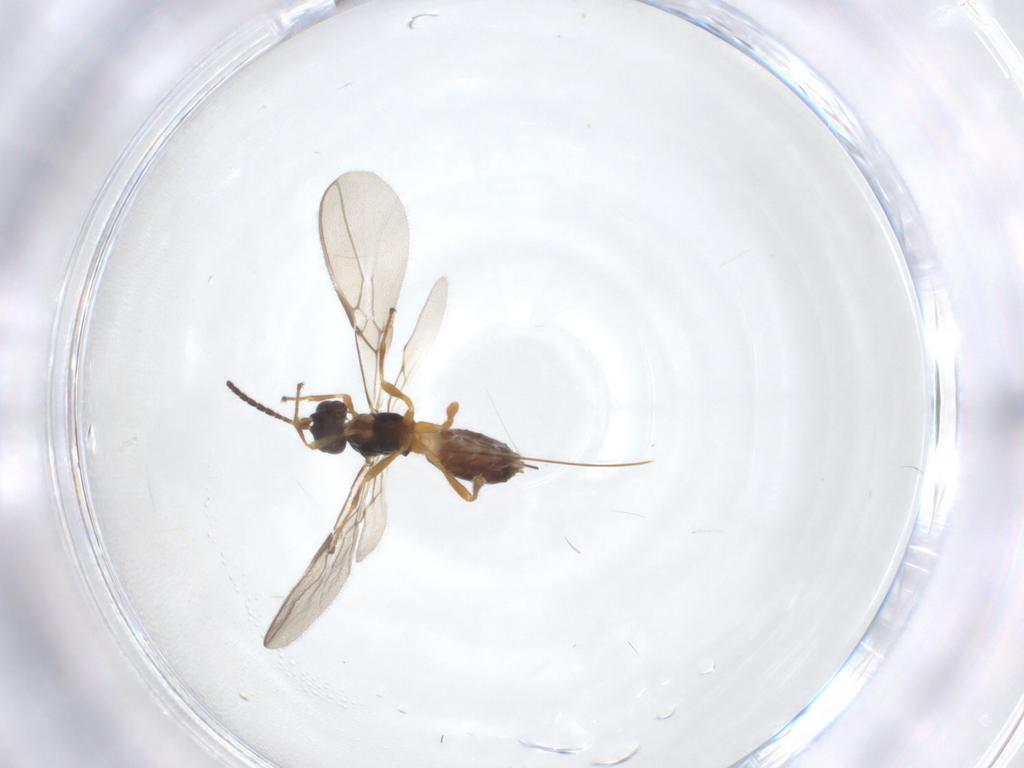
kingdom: Animalia
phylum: Arthropoda
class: Insecta
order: Hymenoptera
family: Braconidae
